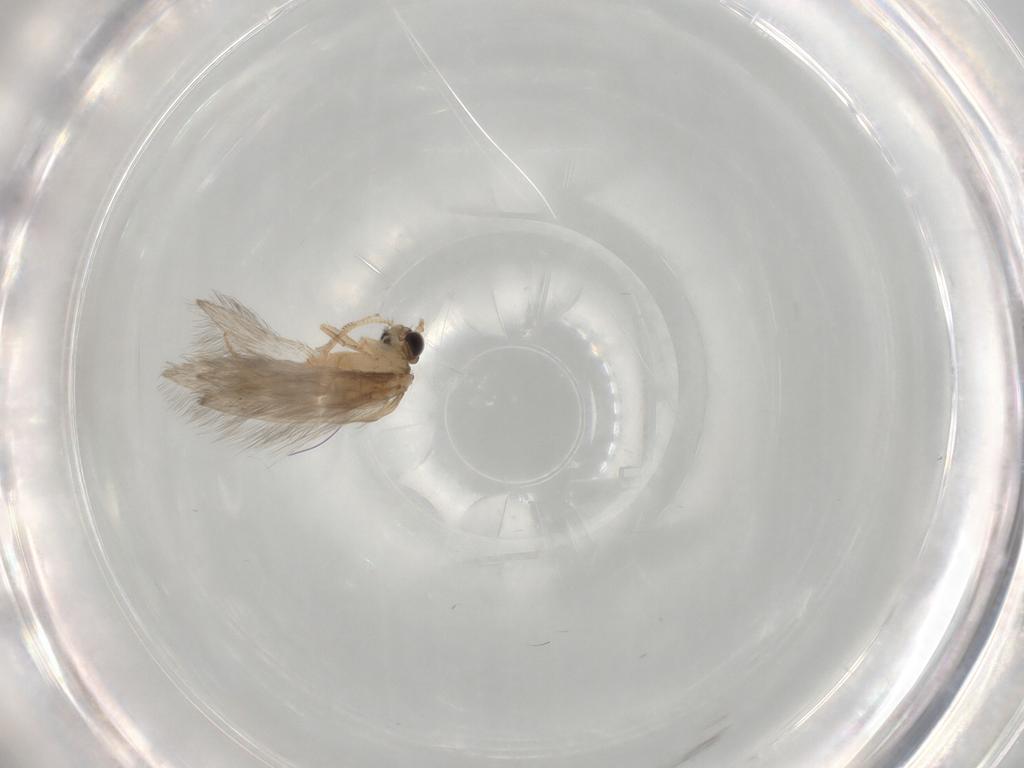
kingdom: Animalia
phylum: Arthropoda
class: Insecta
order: Trichoptera
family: Hydroptilidae
